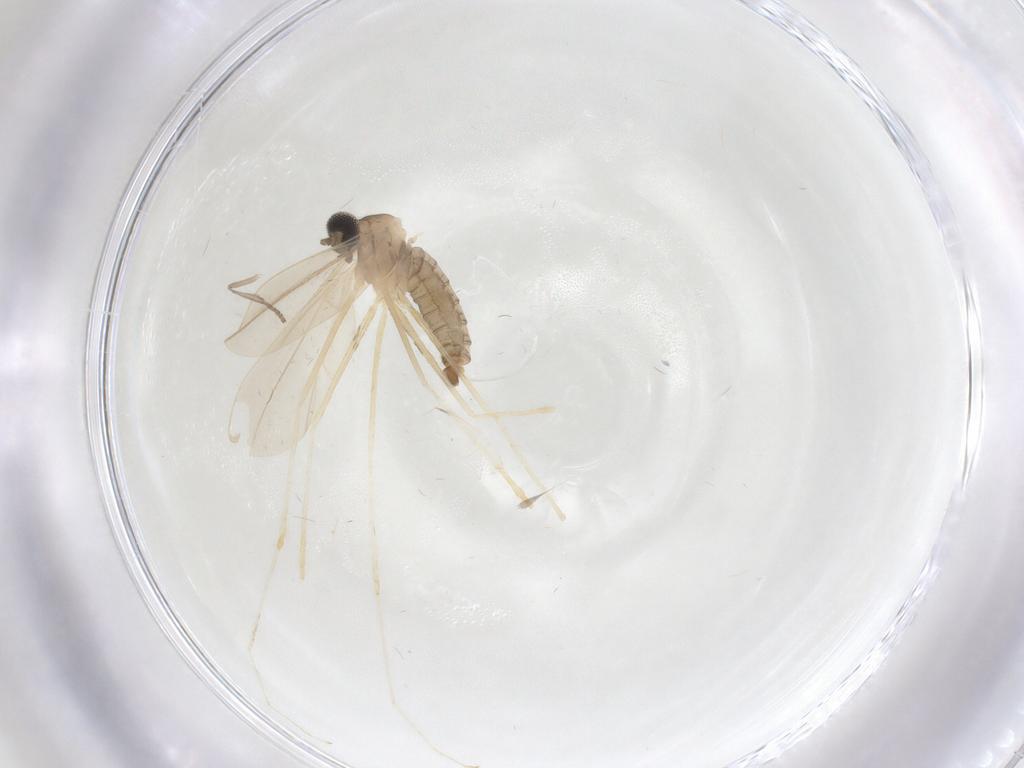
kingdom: Animalia
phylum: Arthropoda
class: Insecta
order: Diptera
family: Cecidomyiidae
